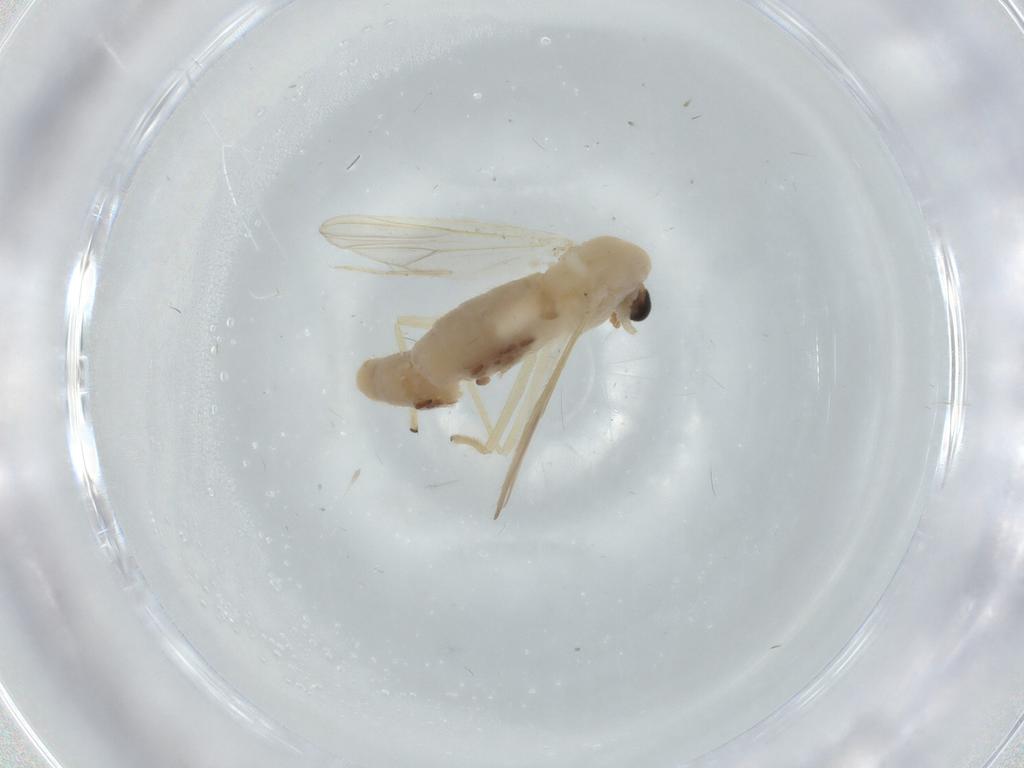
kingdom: Animalia
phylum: Arthropoda
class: Insecta
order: Diptera
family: Chironomidae
